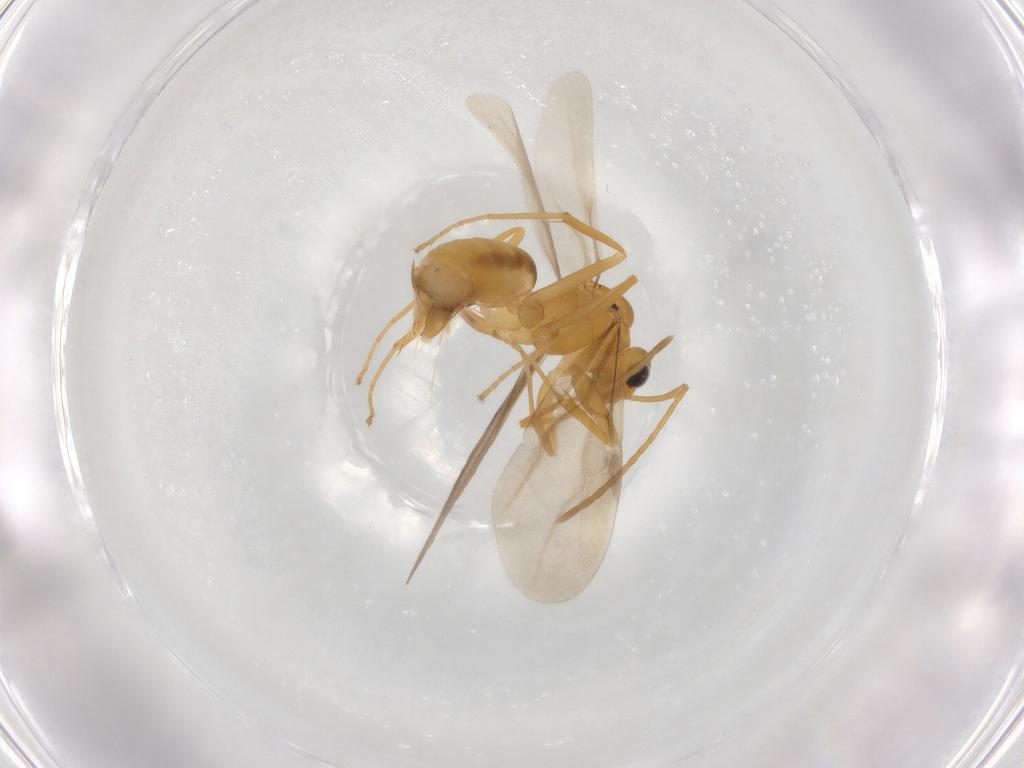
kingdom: Animalia
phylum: Arthropoda
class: Insecta
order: Hymenoptera
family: Formicidae
